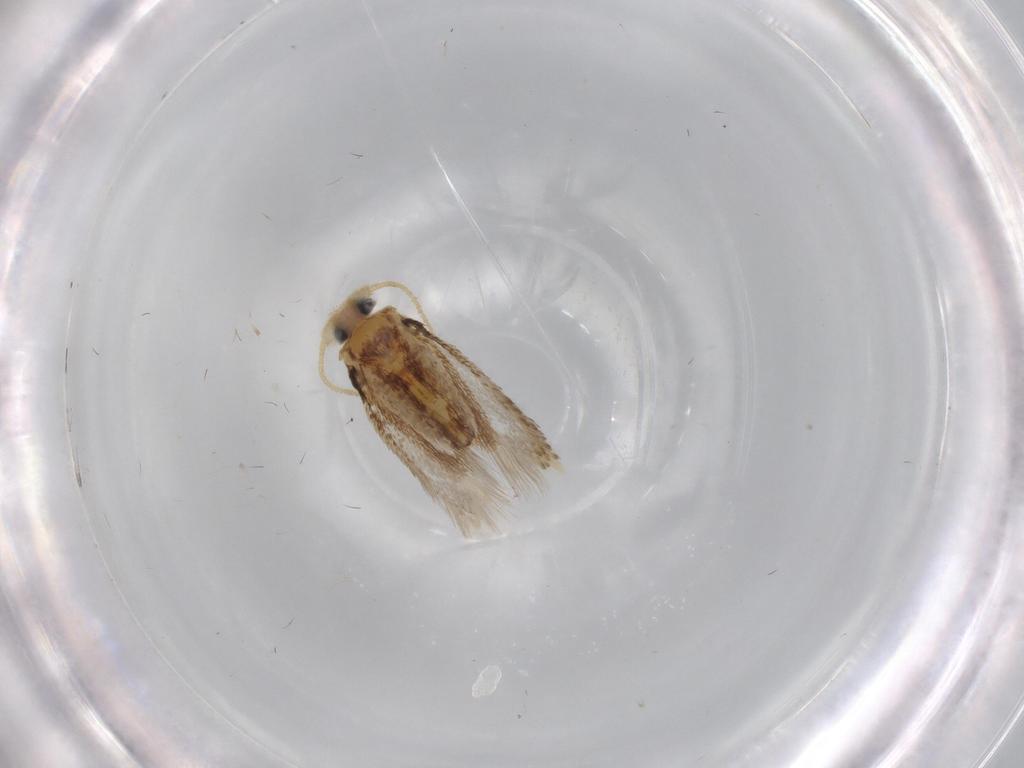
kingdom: Animalia
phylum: Arthropoda
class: Insecta
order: Lepidoptera
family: Nepticulidae
